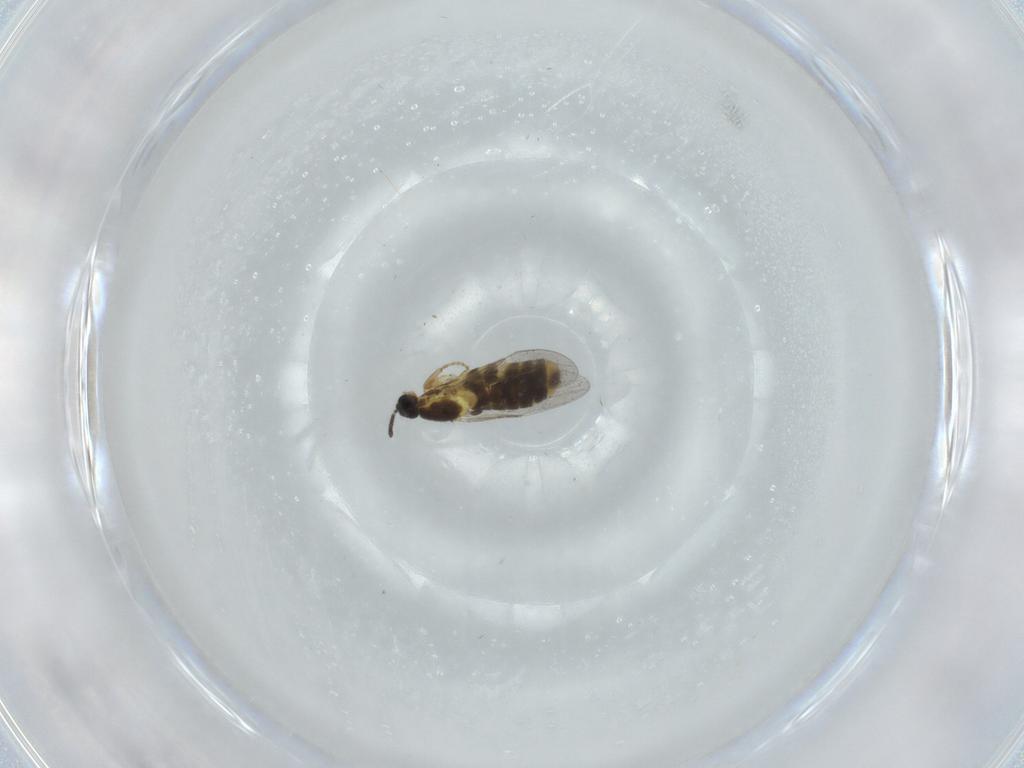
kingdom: Animalia
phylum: Arthropoda
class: Insecta
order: Diptera
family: Scatopsidae
